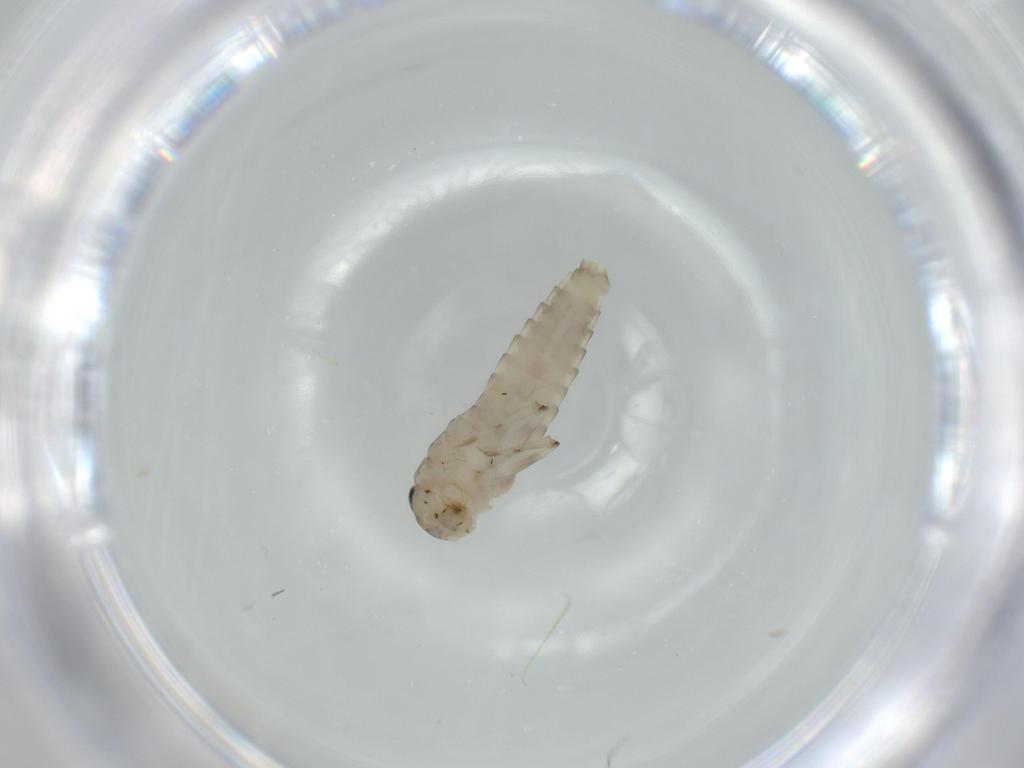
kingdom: Animalia
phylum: Arthropoda
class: Insecta
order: Ephemeroptera
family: Baetidae
